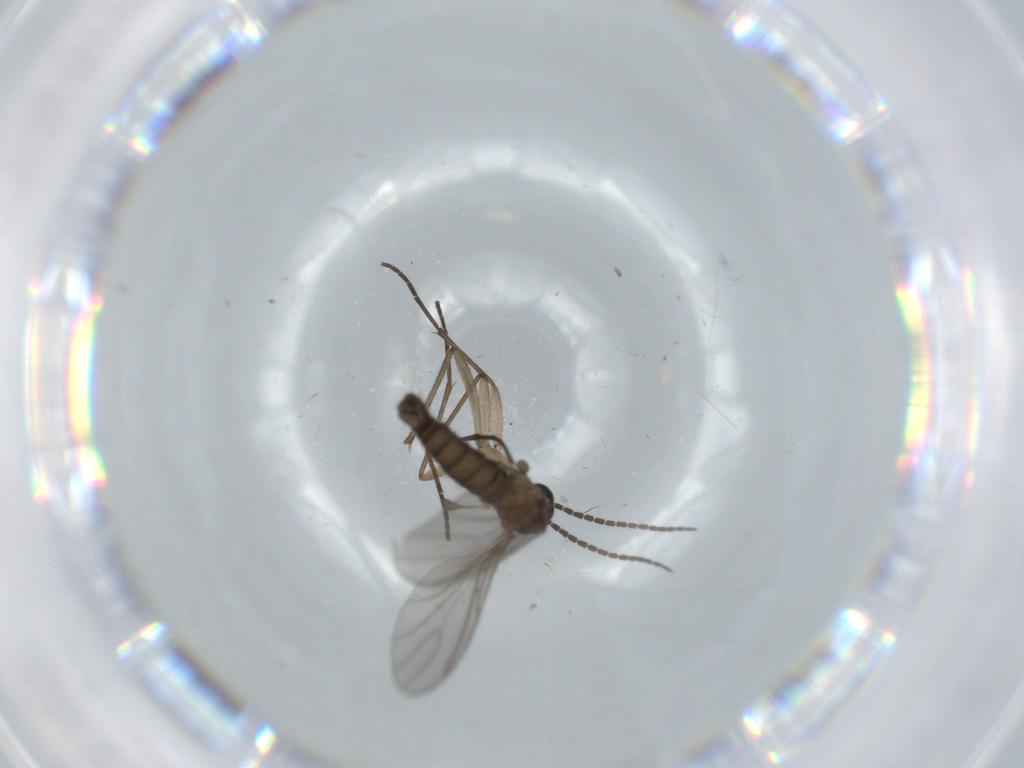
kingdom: Animalia
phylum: Arthropoda
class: Insecta
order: Diptera
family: Sciaridae
